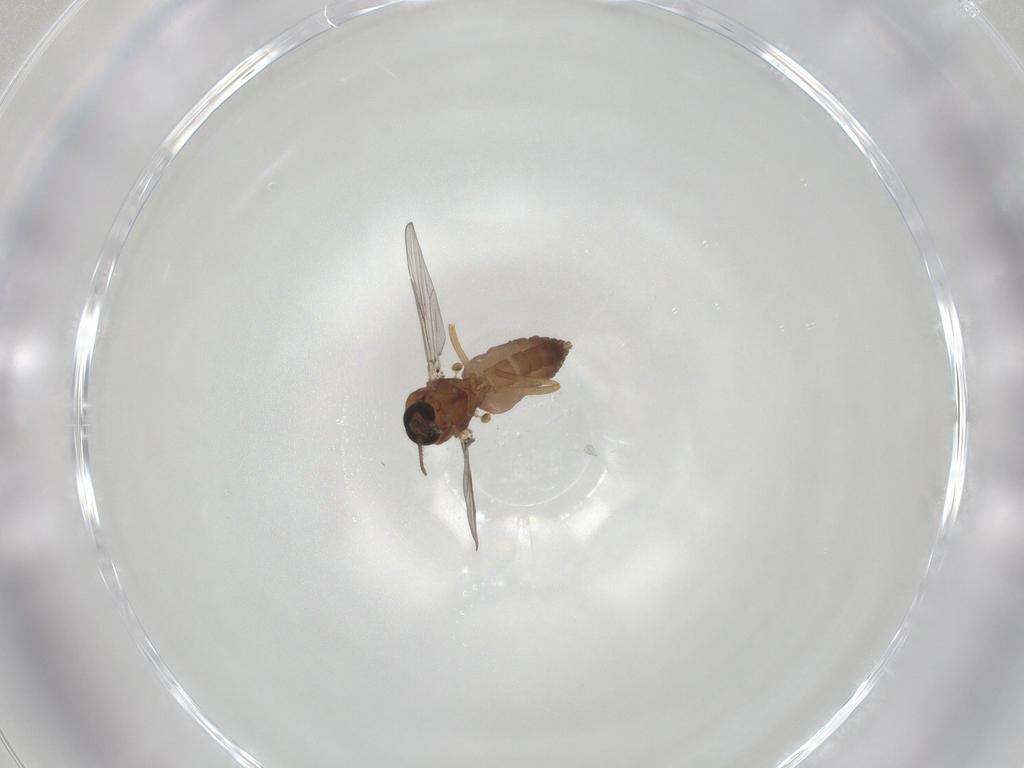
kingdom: Animalia
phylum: Arthropoda
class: Insecta
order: Diptera
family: Ceratopogonidae
